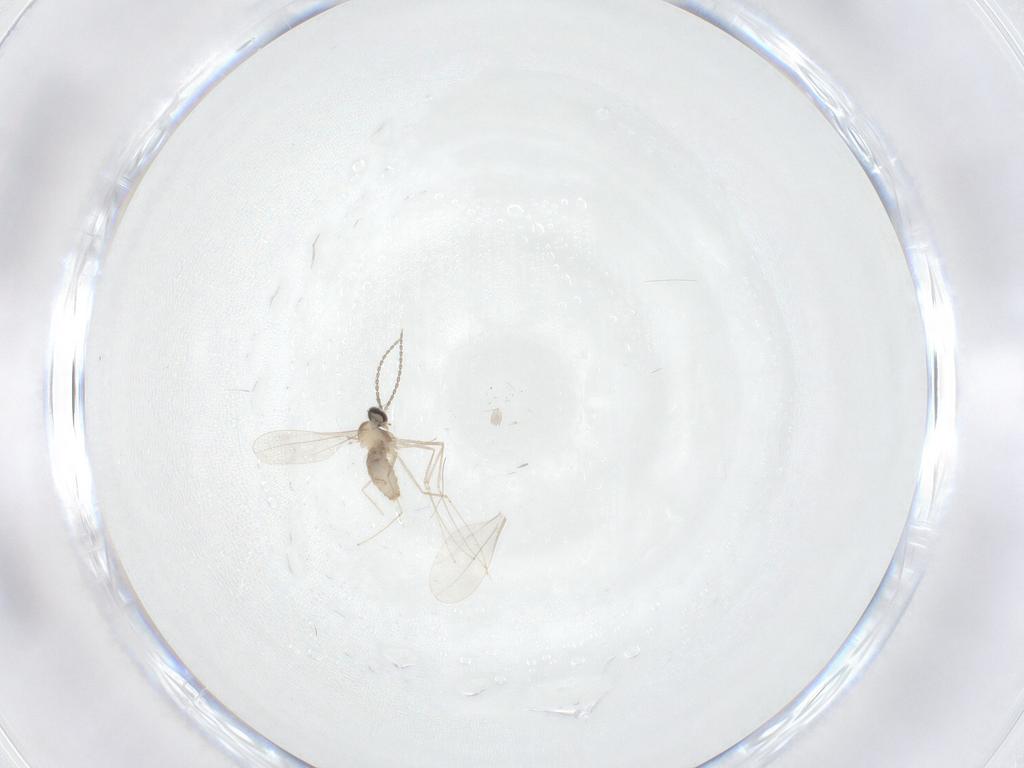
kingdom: Animalia
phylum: Arthropoda
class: Insecta
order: Diptera
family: Cecidomyiidae
